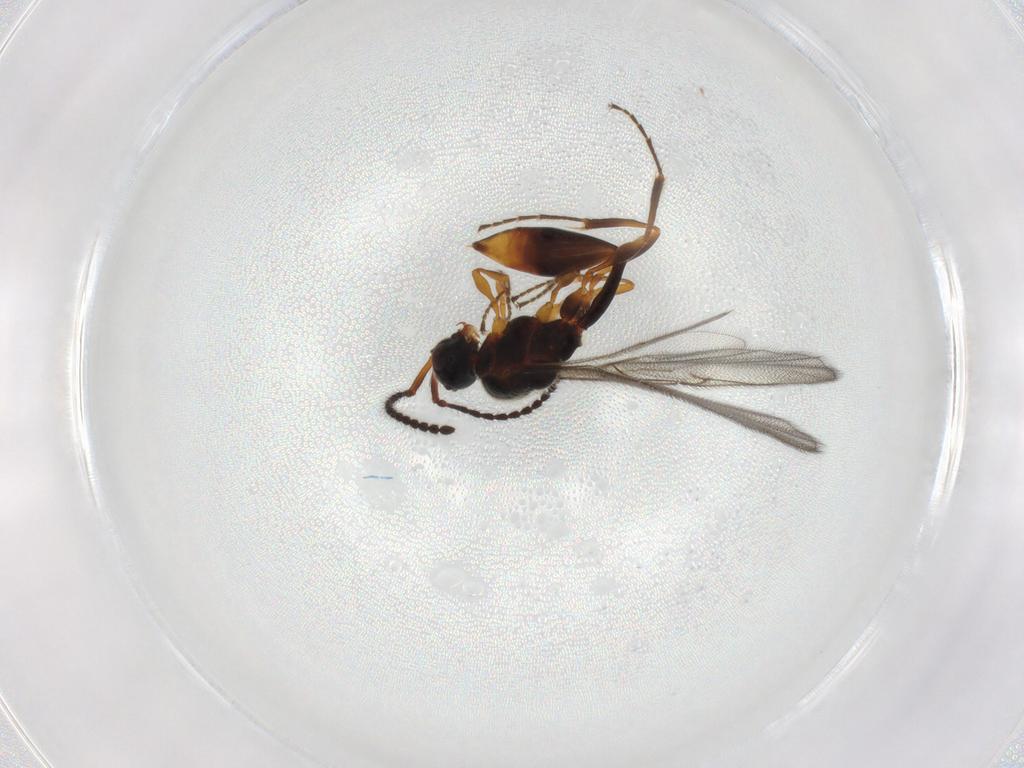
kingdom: Animalia
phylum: Arthropoda
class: Insecta
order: Hymenoptera
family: Diapriidae
